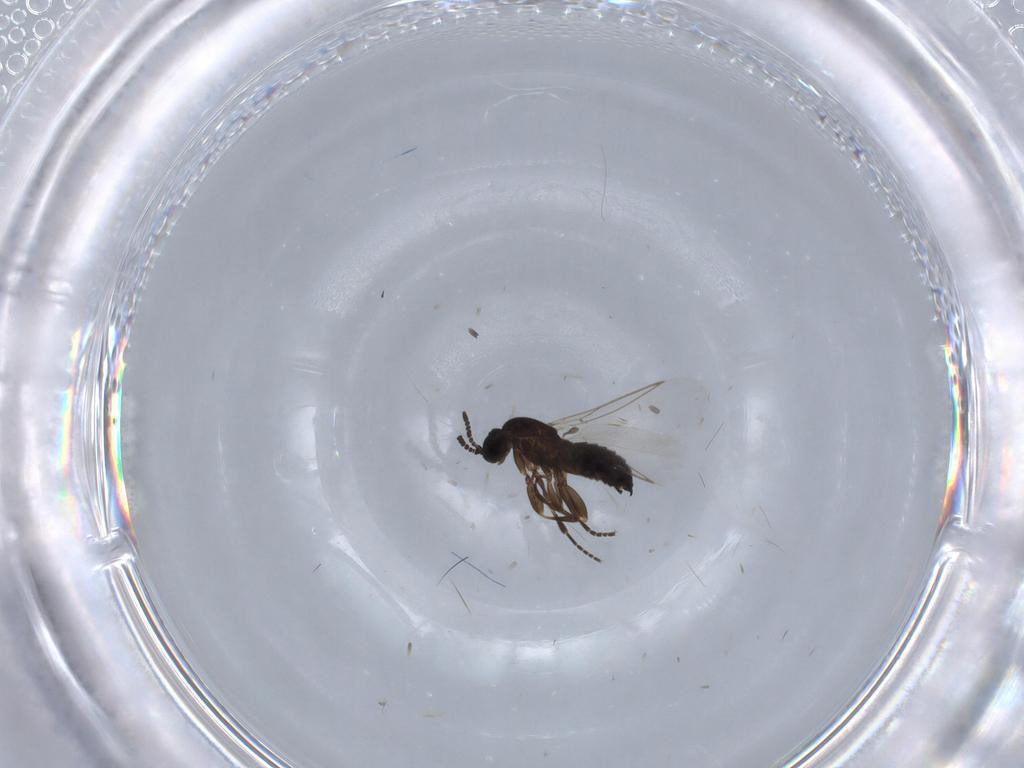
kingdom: Animalia
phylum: Arthropoda
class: Insecta
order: Diptera
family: Scatopsidae
